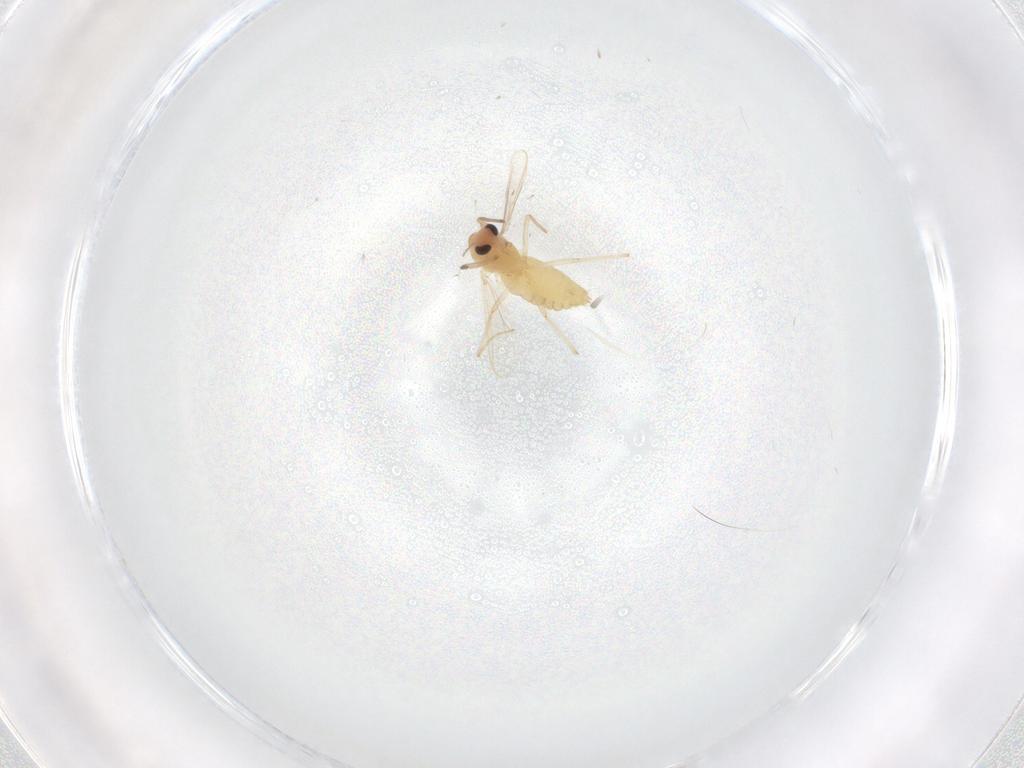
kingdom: Animalia
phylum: Arthropoda
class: Insecta
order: Diptera
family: Chironomidae
